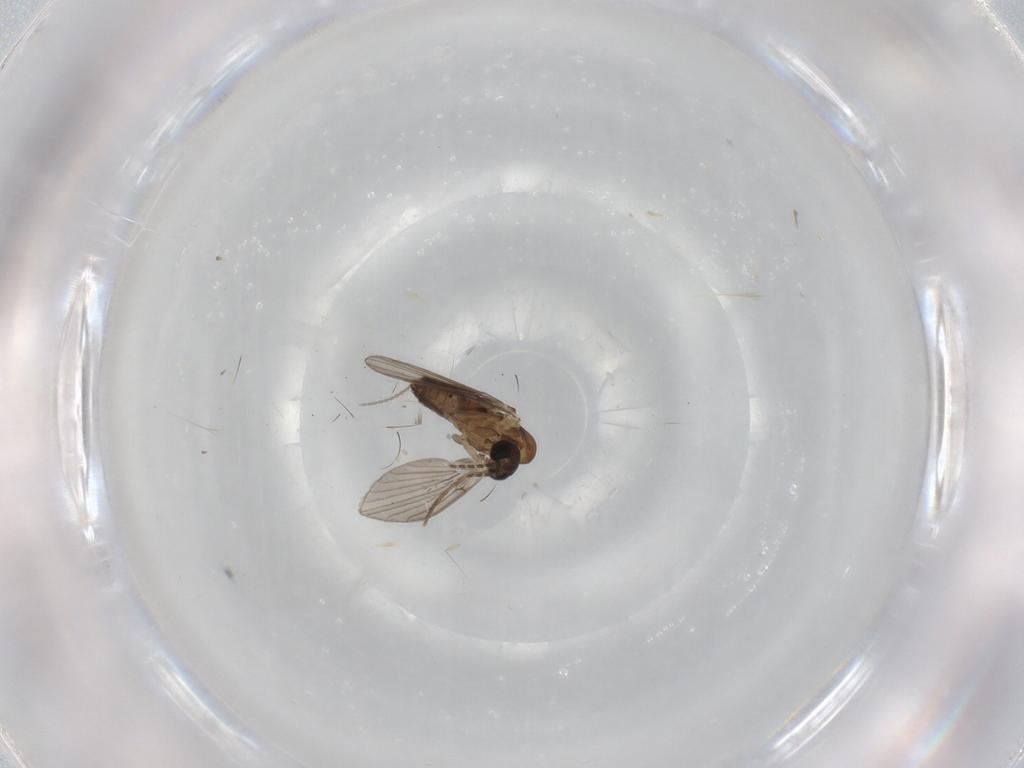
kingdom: Animalia
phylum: Arthropoda
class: Insecta
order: Diptera
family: Psychodidae
